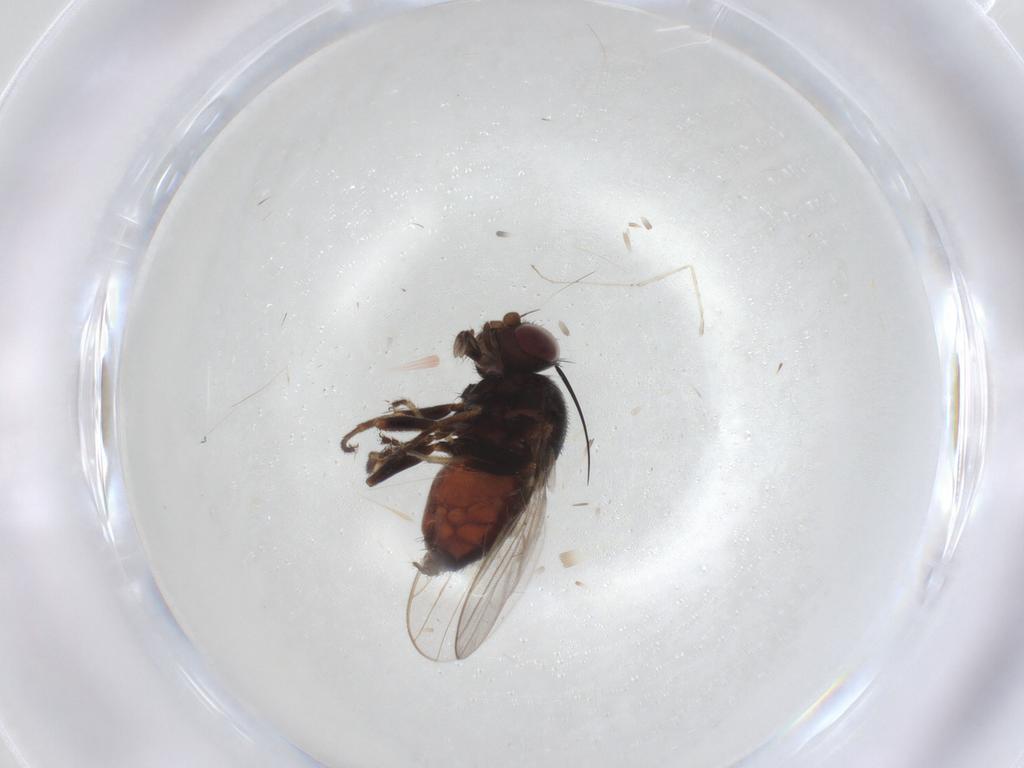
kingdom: Animalia
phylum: Arthropoda
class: Insecta
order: Diptera
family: Chloropidae
